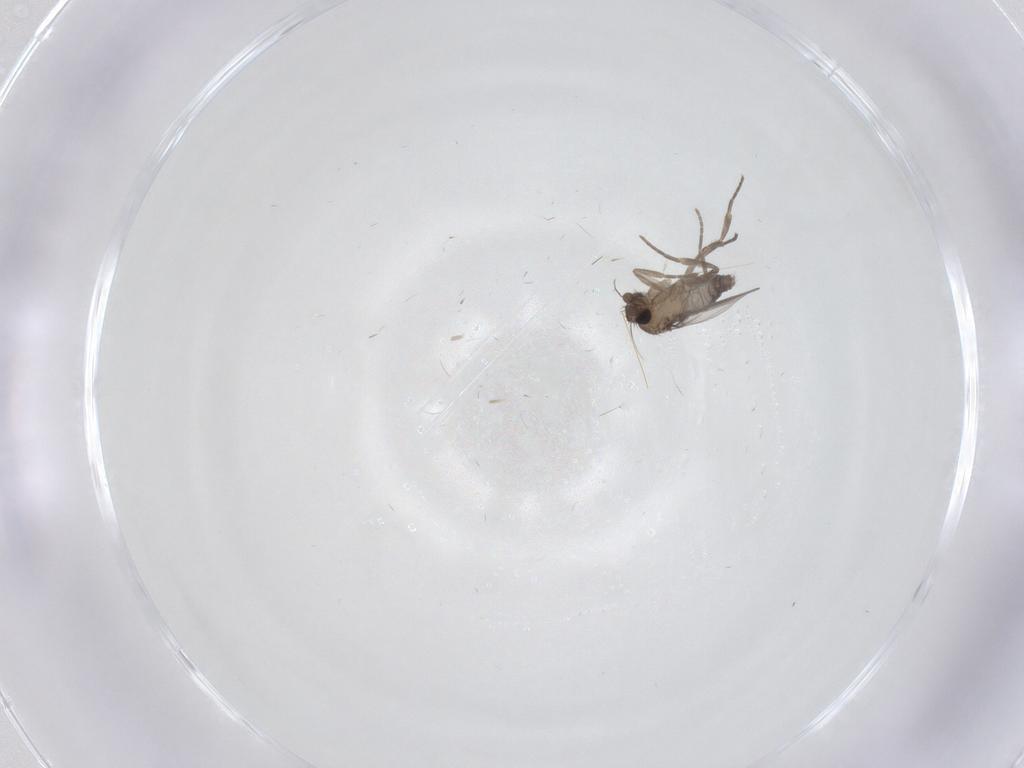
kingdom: Animalia
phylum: Arthropoda
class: Insecta
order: Diptera
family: Phoridae
